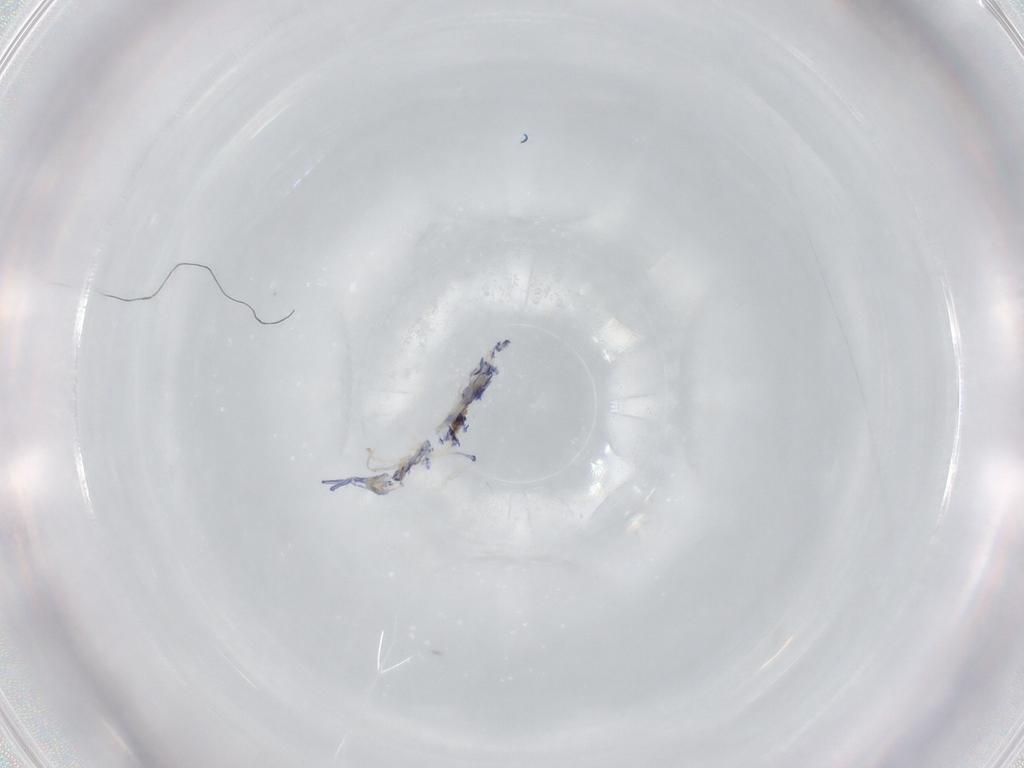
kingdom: Animalia
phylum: Arthropoda
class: Collembola
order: Entomobryomorpha
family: Entomobryidae
